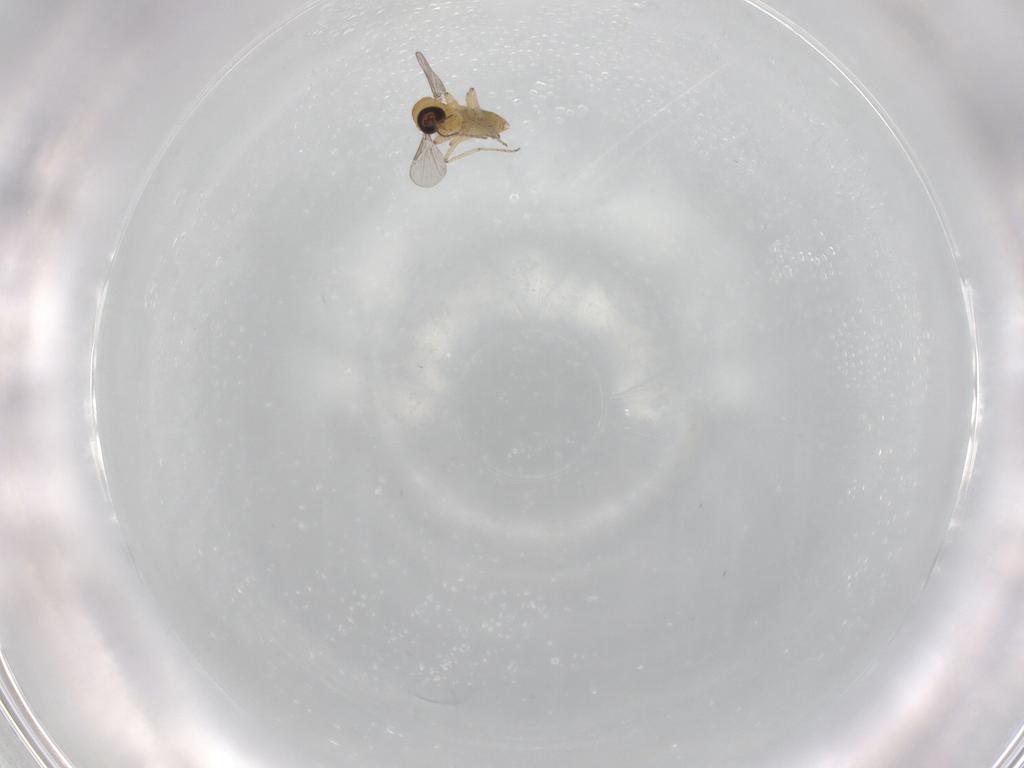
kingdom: Animalia
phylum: Arthropoda
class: Insecta
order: Diptera
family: Ceratopogonidae
